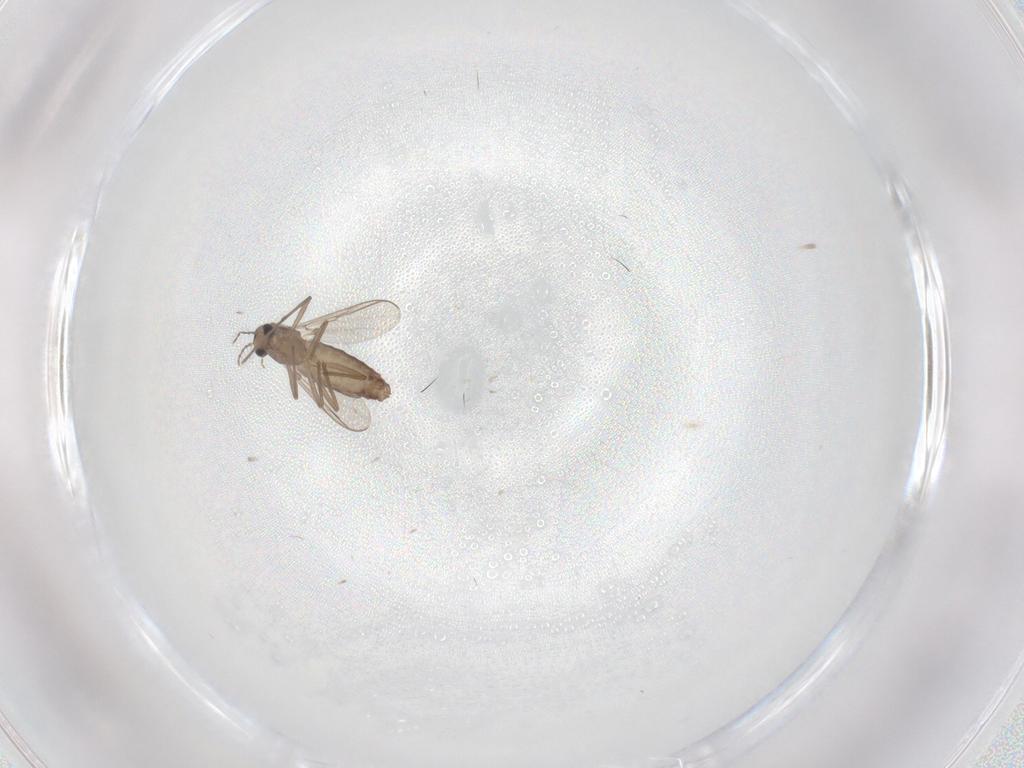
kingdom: Animalia
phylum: Arthropoda
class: Insecta
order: Diptera
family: Chironomidae
